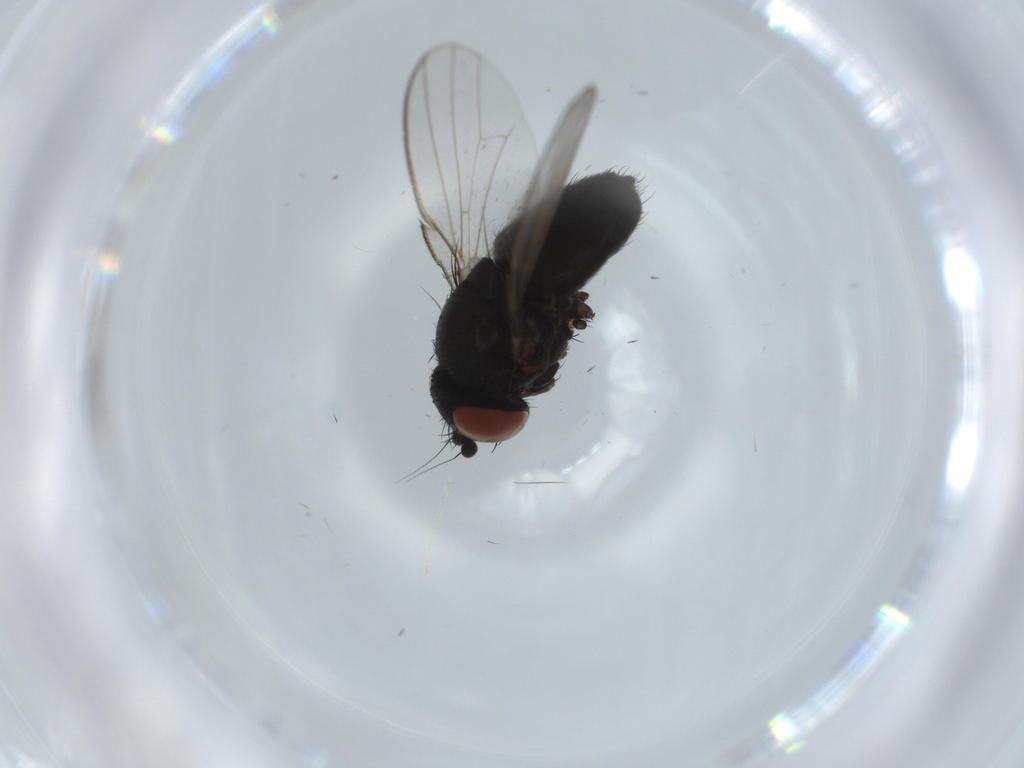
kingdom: Animalia
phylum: Arthropoda
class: Insecta
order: Diptera
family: Milichiidae
